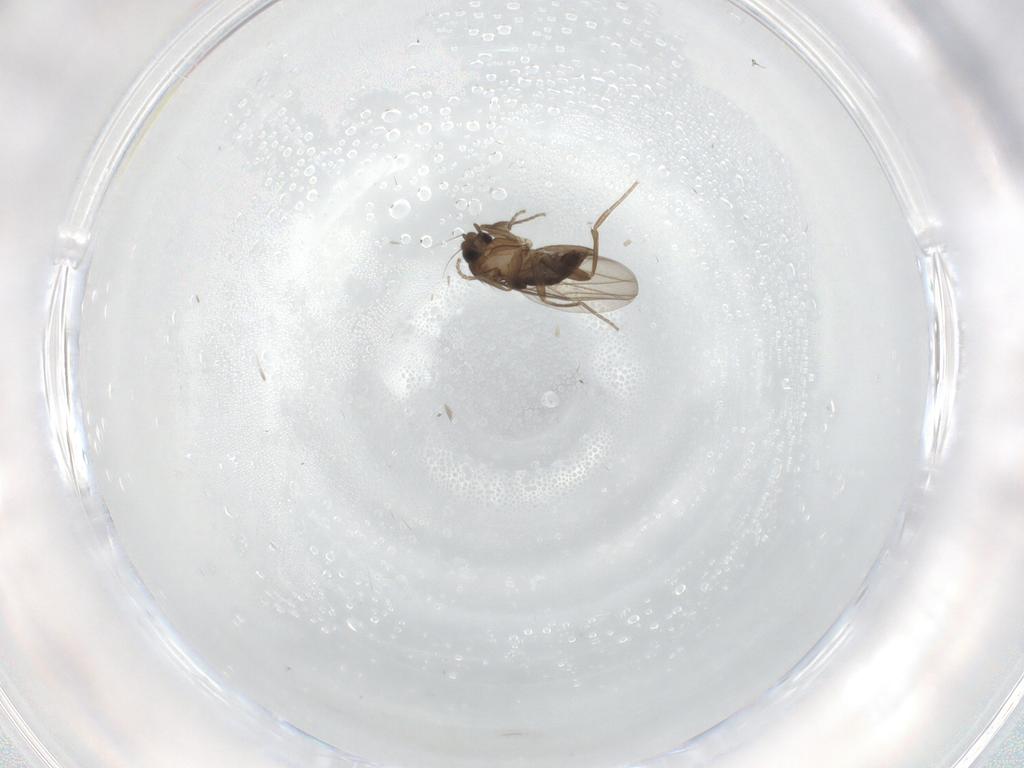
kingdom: Animalia
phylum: Arthropoda
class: Insecta
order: Diptera
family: Ceratopogonidae
